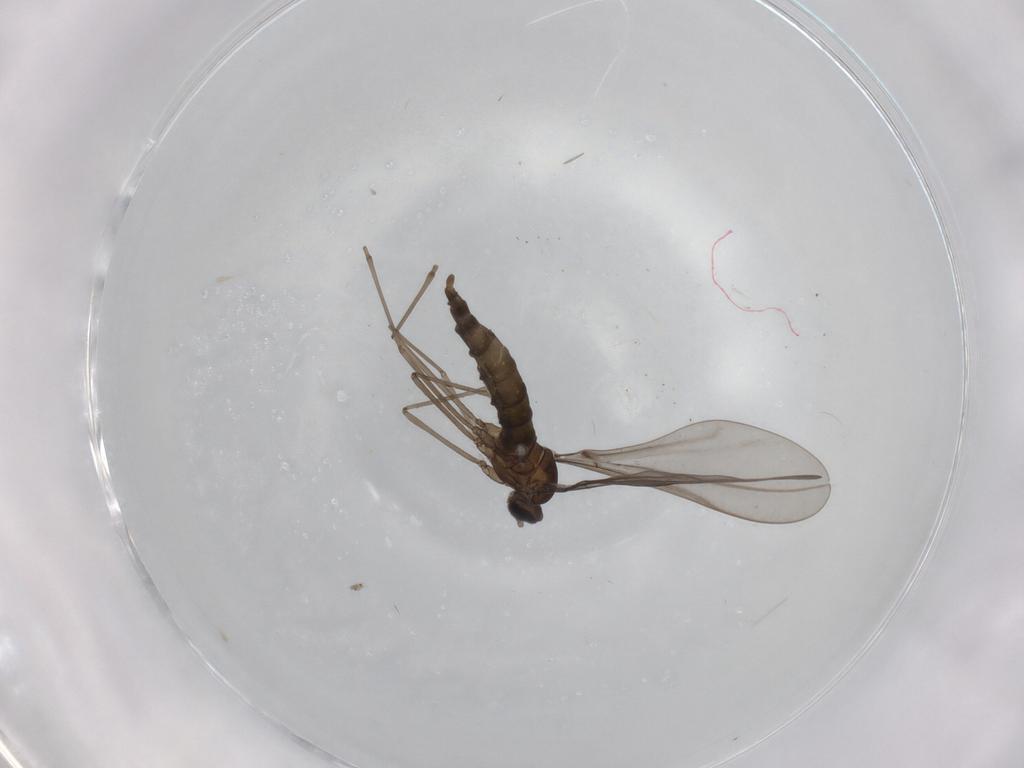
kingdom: Animalia
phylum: Arthropoda
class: Insecta
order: Diptera
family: Cecidomyiidae
